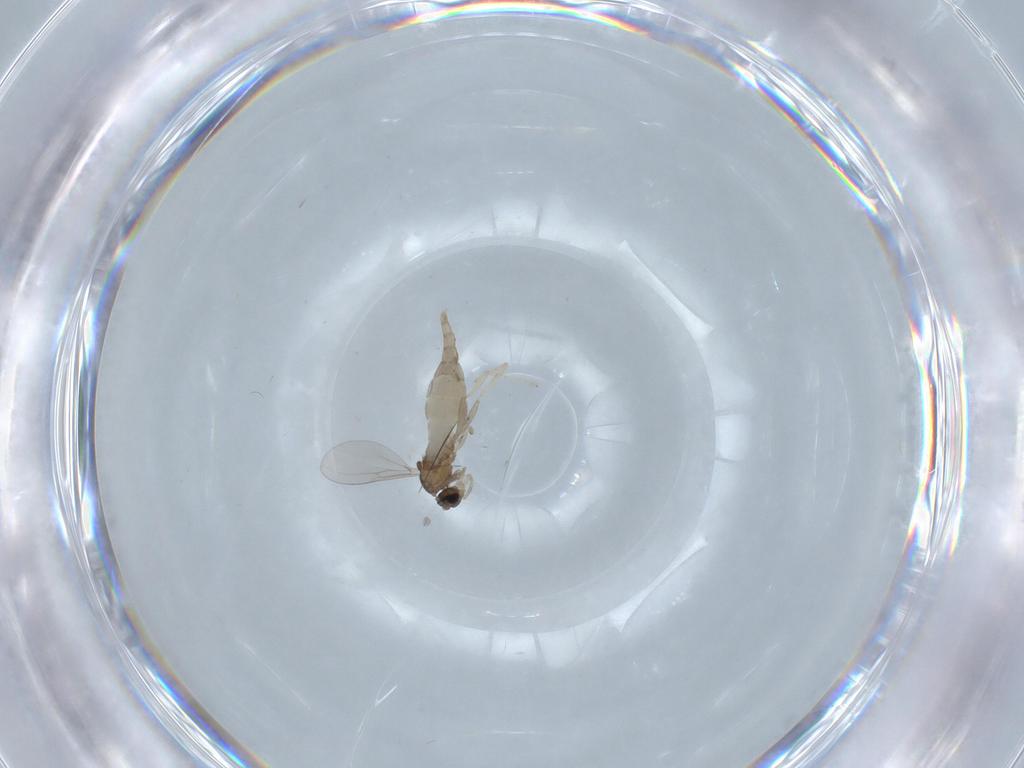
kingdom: Animalia
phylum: Arthropoda
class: Insecta
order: Diptera
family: Cecidomyiidae
